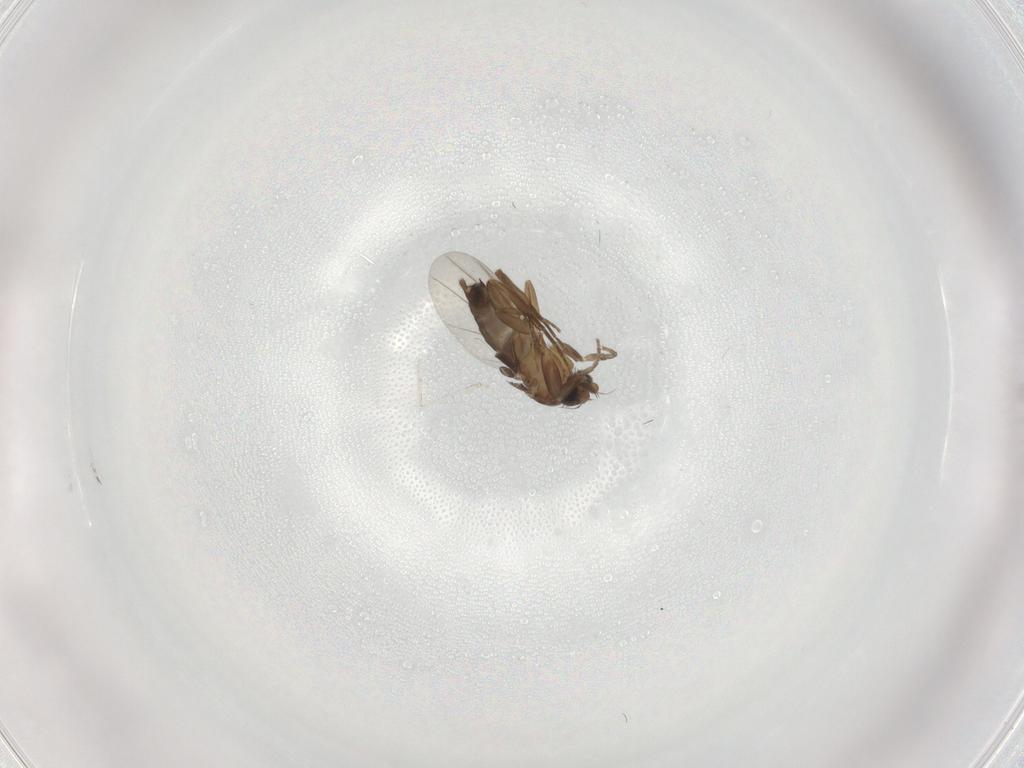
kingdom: Animalia
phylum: Arthropoda
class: Insecta
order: Diptera
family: Phoridae
